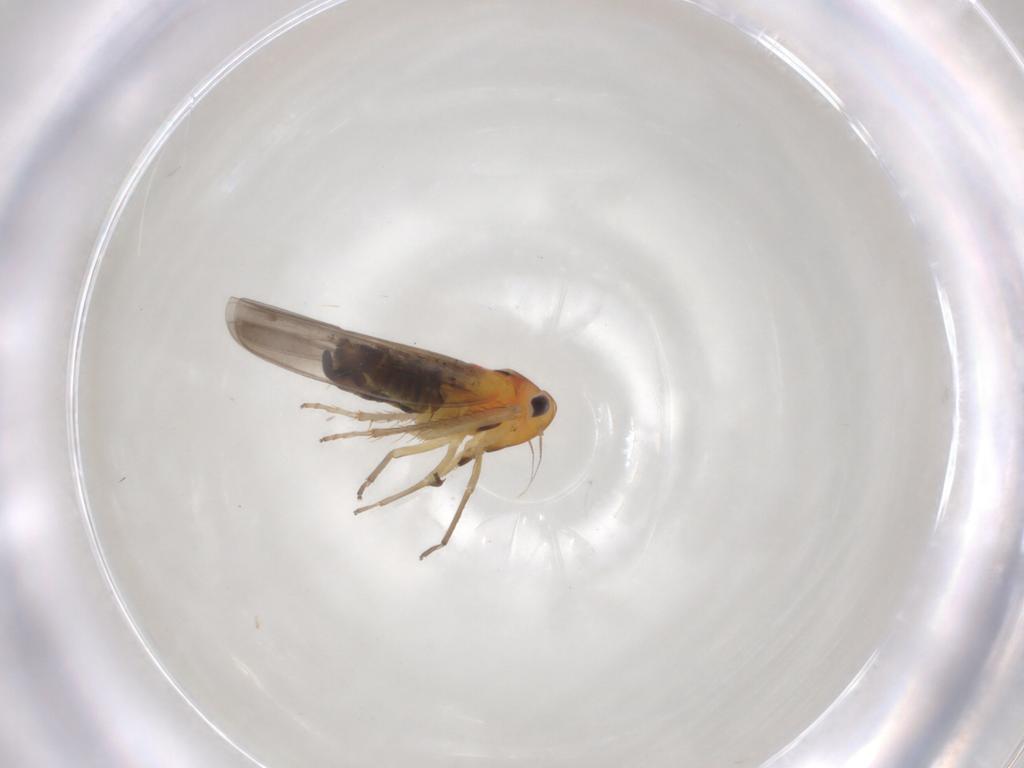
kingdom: Animalia
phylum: Arthropoda
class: Insecta
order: Hemiptera
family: Cicadellidae
